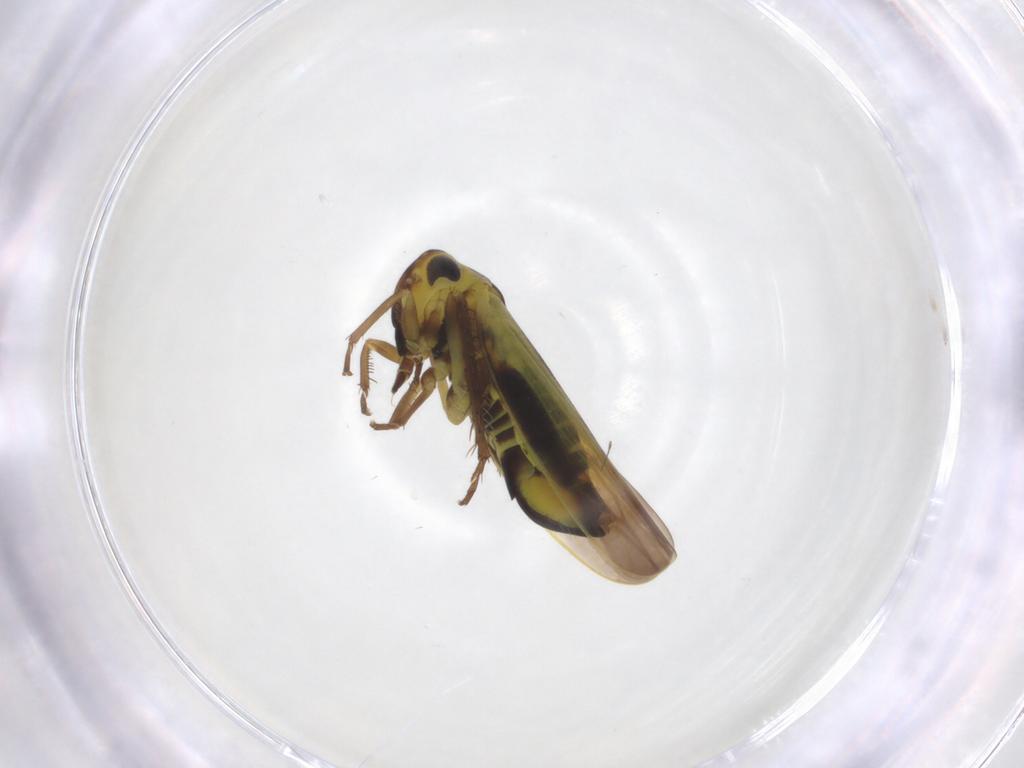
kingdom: Animalia
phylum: Arthropoda
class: Insecta
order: Hemiptera
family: Cicadellidae
